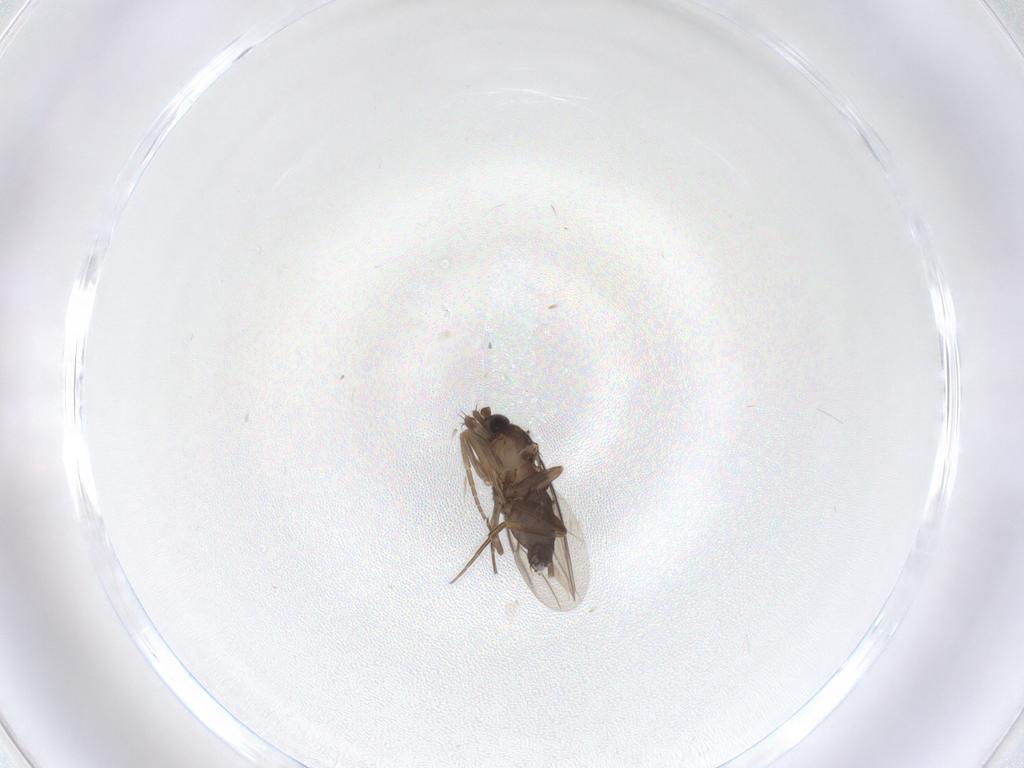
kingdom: Animalia
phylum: Arthropoda
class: Insecta
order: Diptera
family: Phoridae
